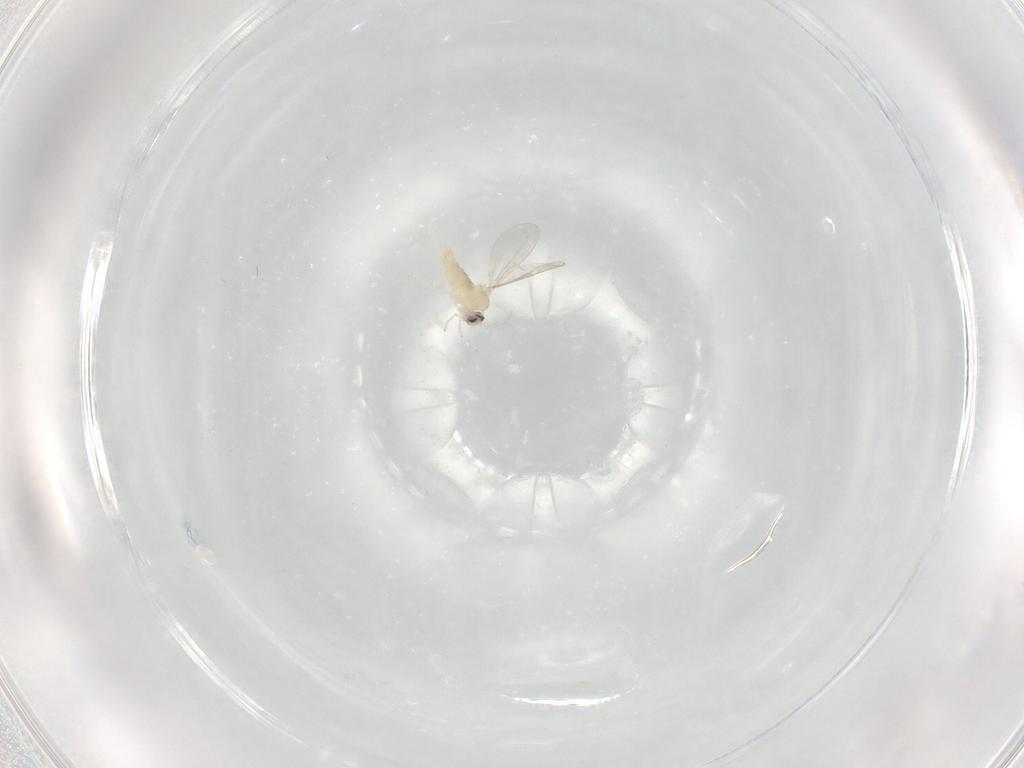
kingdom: Animalia
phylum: Arthropoda
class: Insecta
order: Diptera
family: Cecidomyiidae
